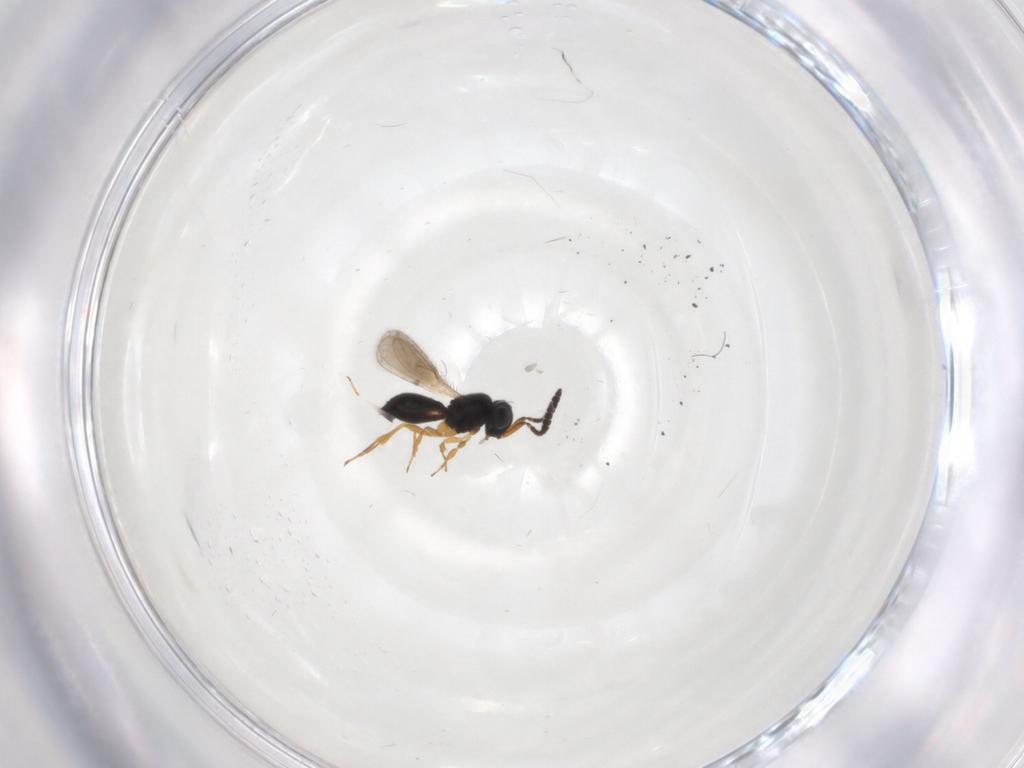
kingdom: Animalia
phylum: Arthropoda
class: Insecta
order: Hymenoptera
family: Scelionidae
